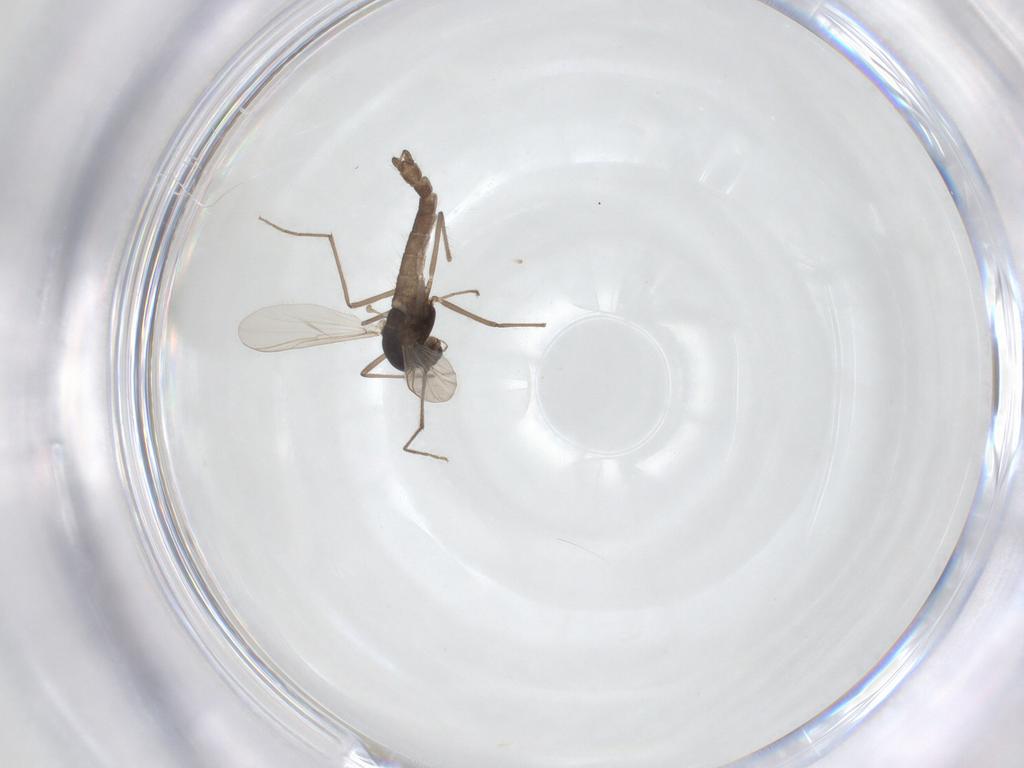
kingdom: Animalia
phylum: Arthropoda
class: Insecta
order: Diptera
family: Chironomidae
